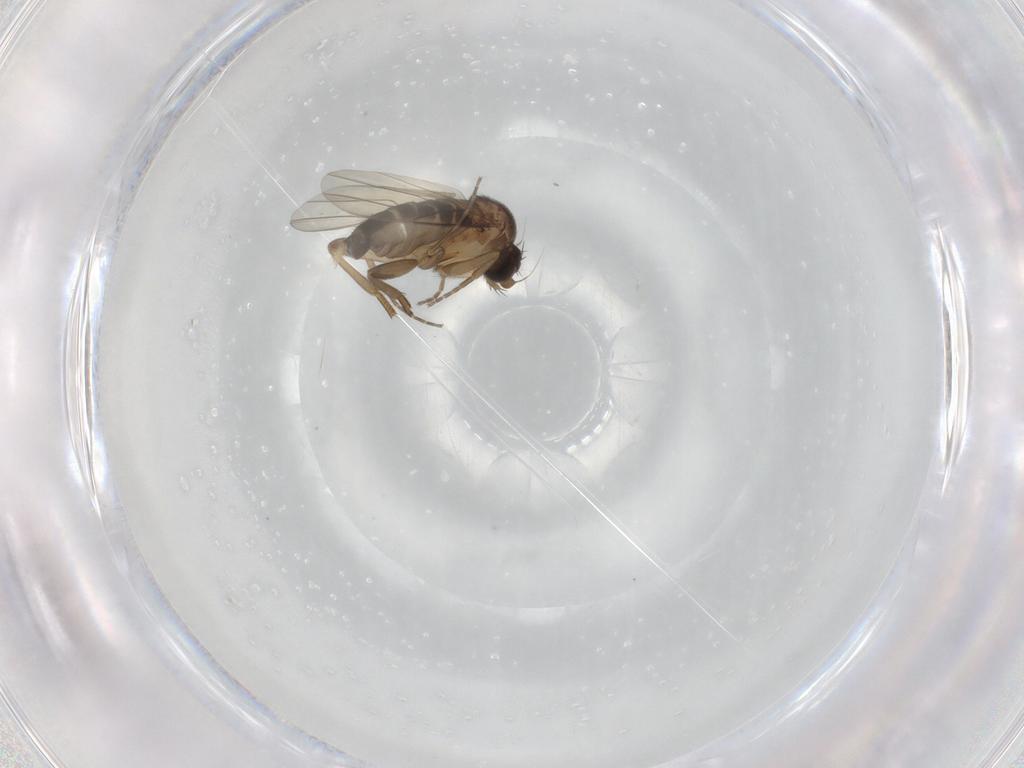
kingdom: Animalia
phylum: Arthropoda
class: Insecta
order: Diptera
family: Phoridae
